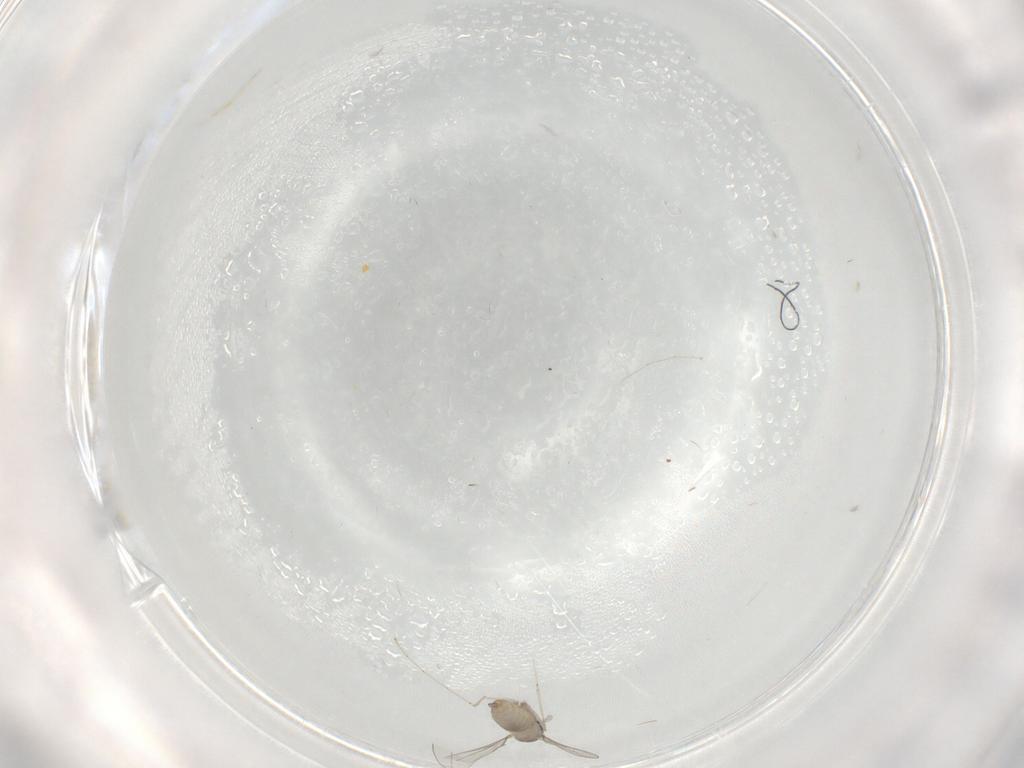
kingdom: Animalia
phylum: Arthropoda
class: Insecta
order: Diptera
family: Cecidomyiidae
